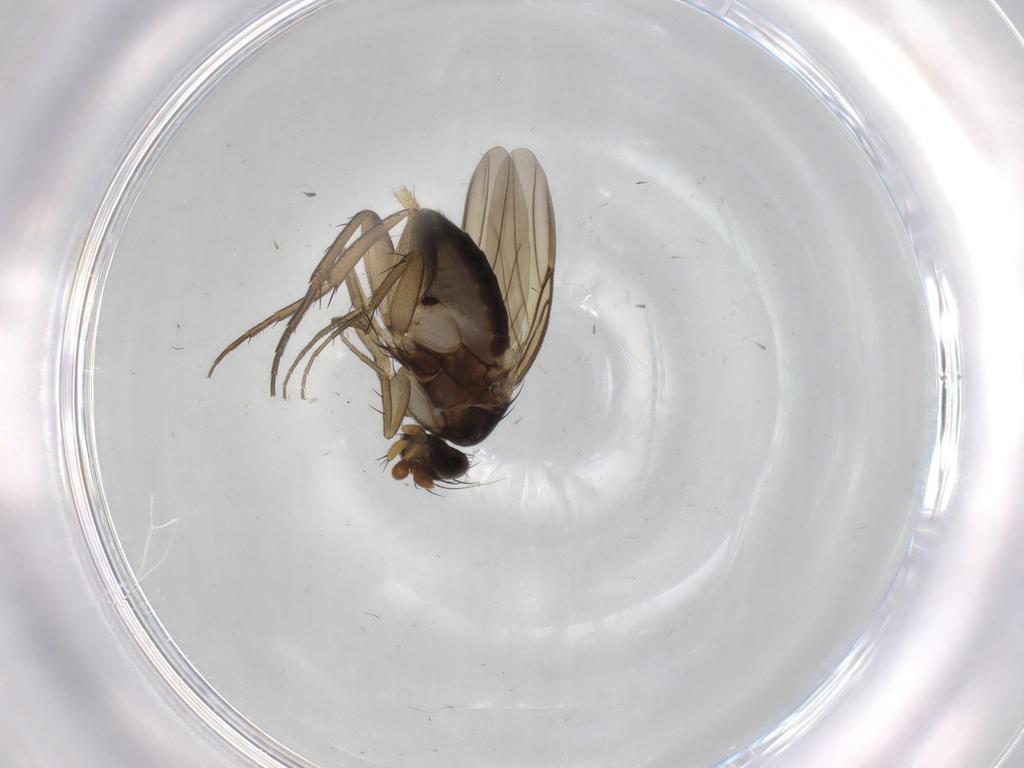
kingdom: Animalia
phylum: Arthropoda
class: Insecta
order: Diptera
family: Phoridae
